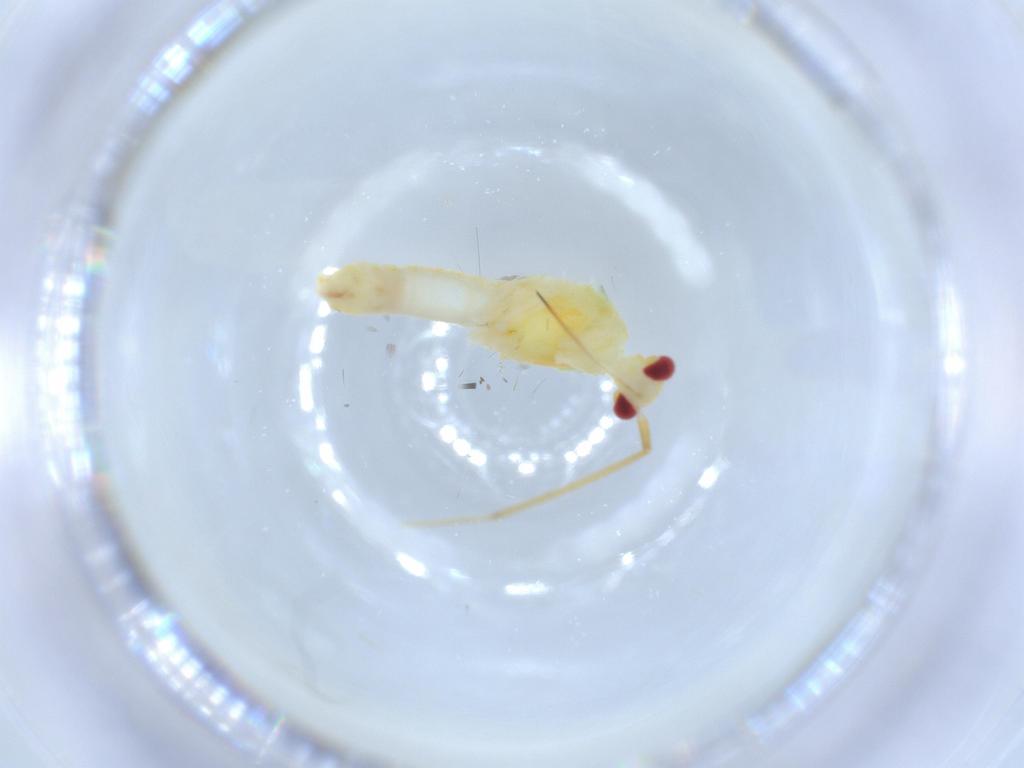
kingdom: Animalia
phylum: Arthropoda
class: Insecta
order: Hemiptera
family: Miridae
